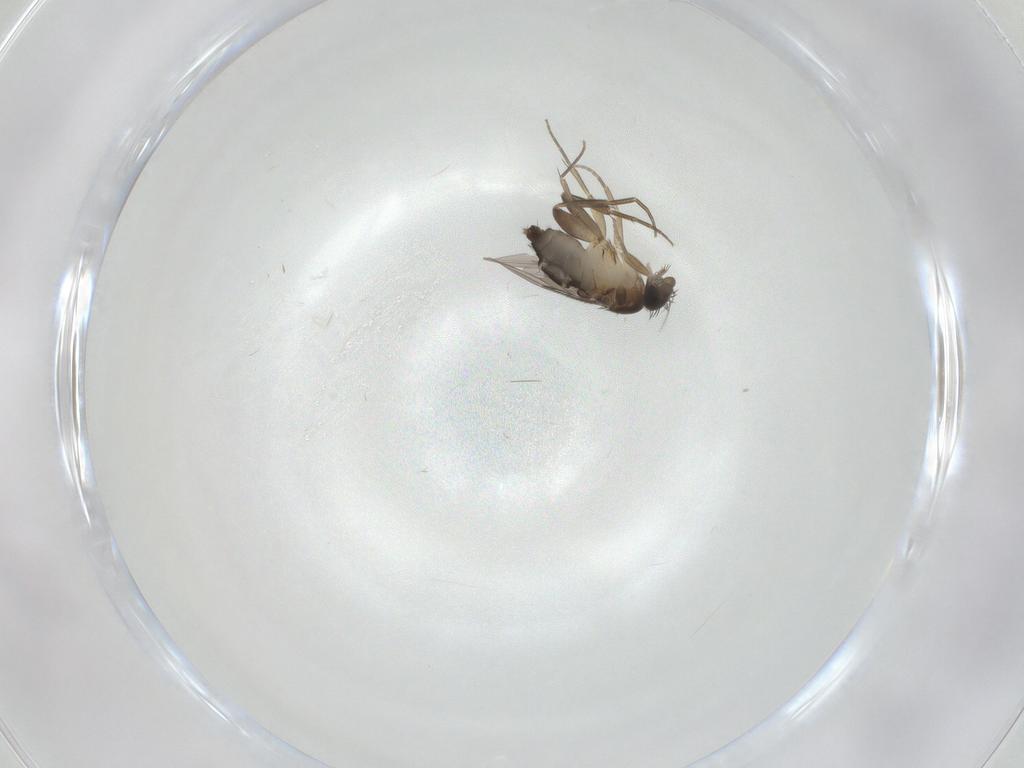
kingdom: Animalia
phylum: Arthropoda
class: Insecta
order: Diptera
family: Phoridae
